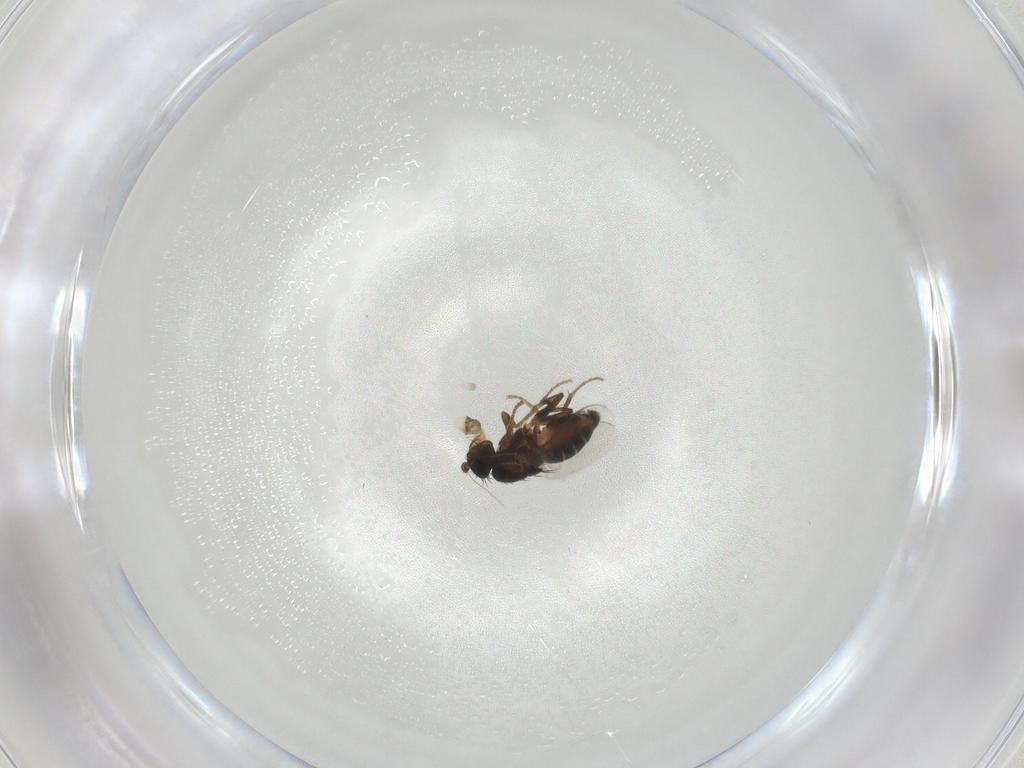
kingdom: Animalia
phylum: Arthropoda
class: Insecta
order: Diptera
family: Sphaeroceridae
